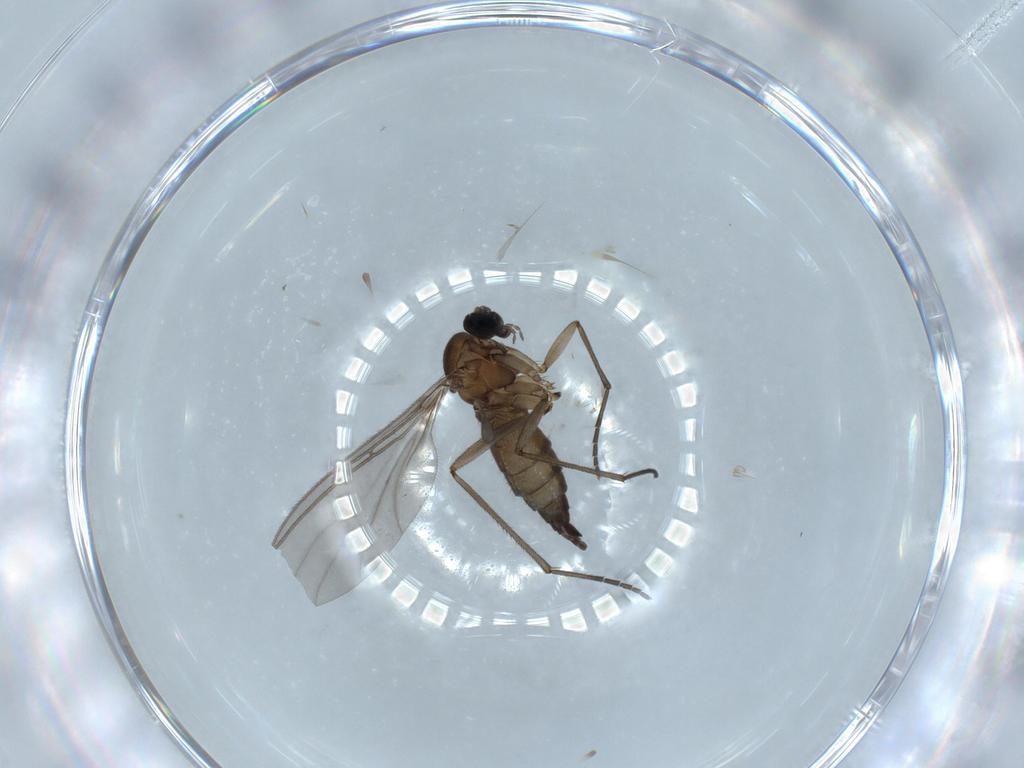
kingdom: Animalia
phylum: Arthropoda
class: Insecta
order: Diptera
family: Sciaridae
